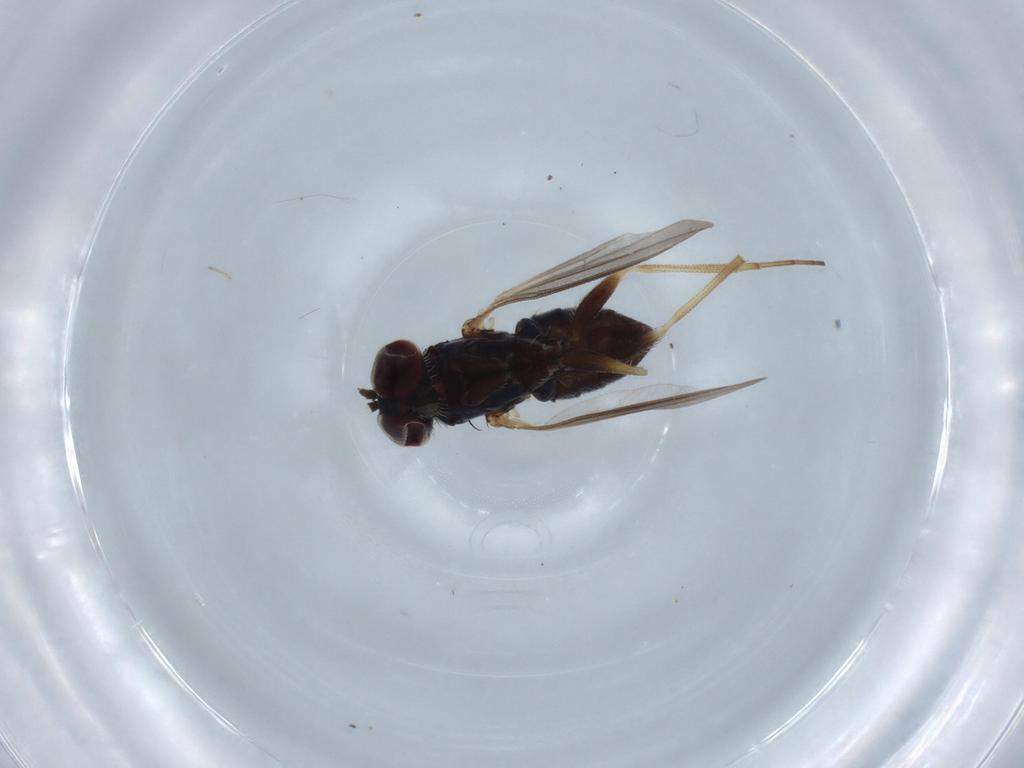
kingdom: Animalia
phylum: Arthropoda
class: Insecta
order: Diptera
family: Dolichopodidae
